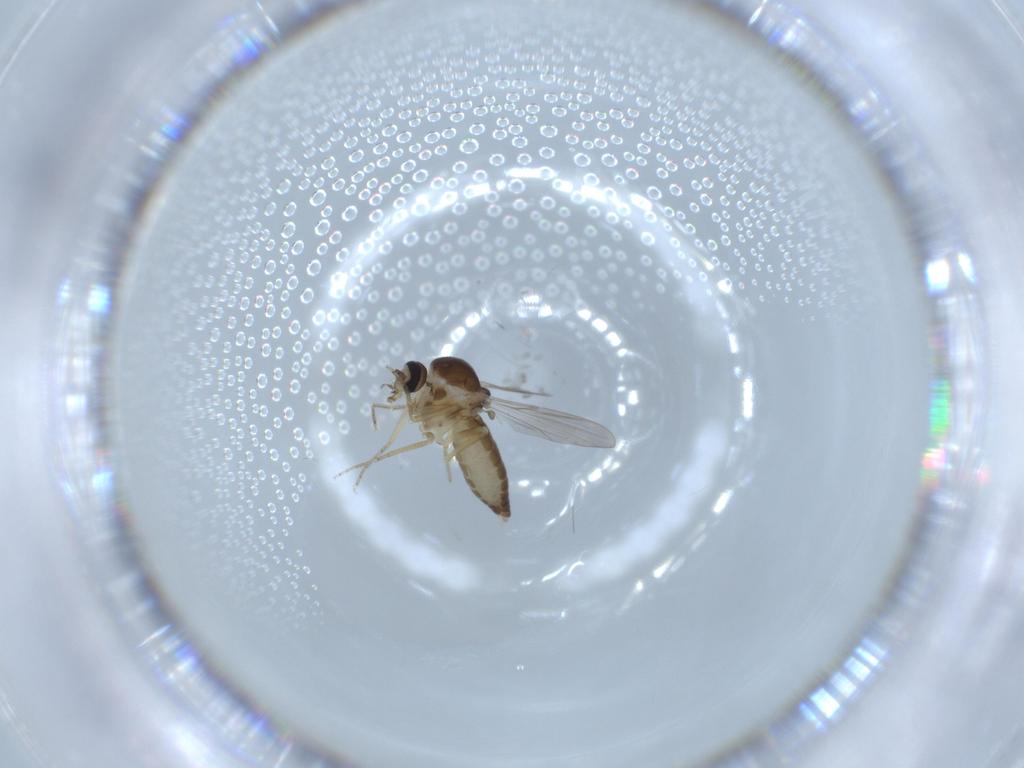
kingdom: Animalia
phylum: Arthropoda
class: Insecta
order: Diptera
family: Ceratopogonidae
